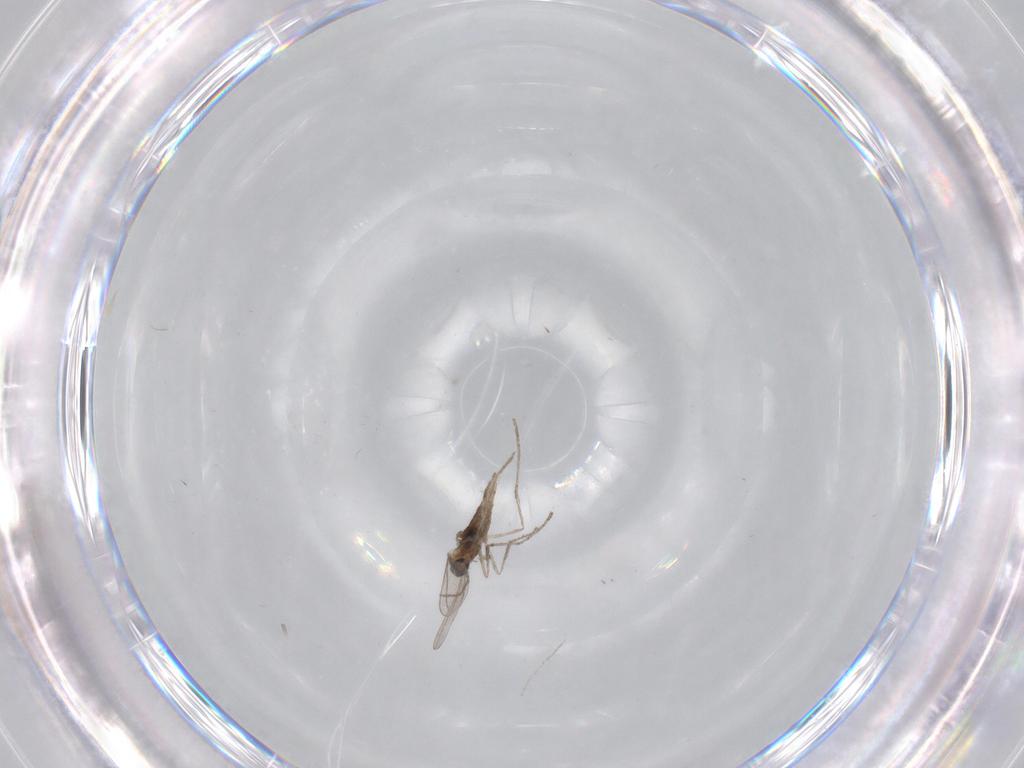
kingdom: Animalia
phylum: Arthropoda
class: Insecta
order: Diptera
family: Cecidomyiidae
